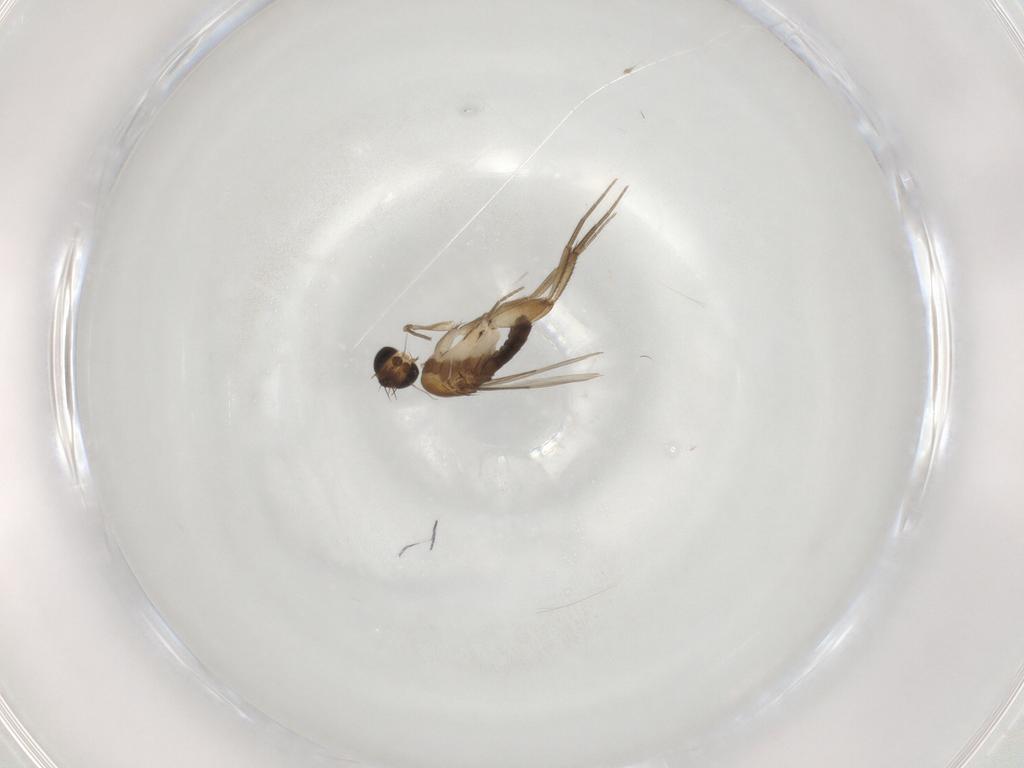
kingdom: Animalia
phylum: Arthropoda
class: Insecta
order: Diptera
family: Phoridae
